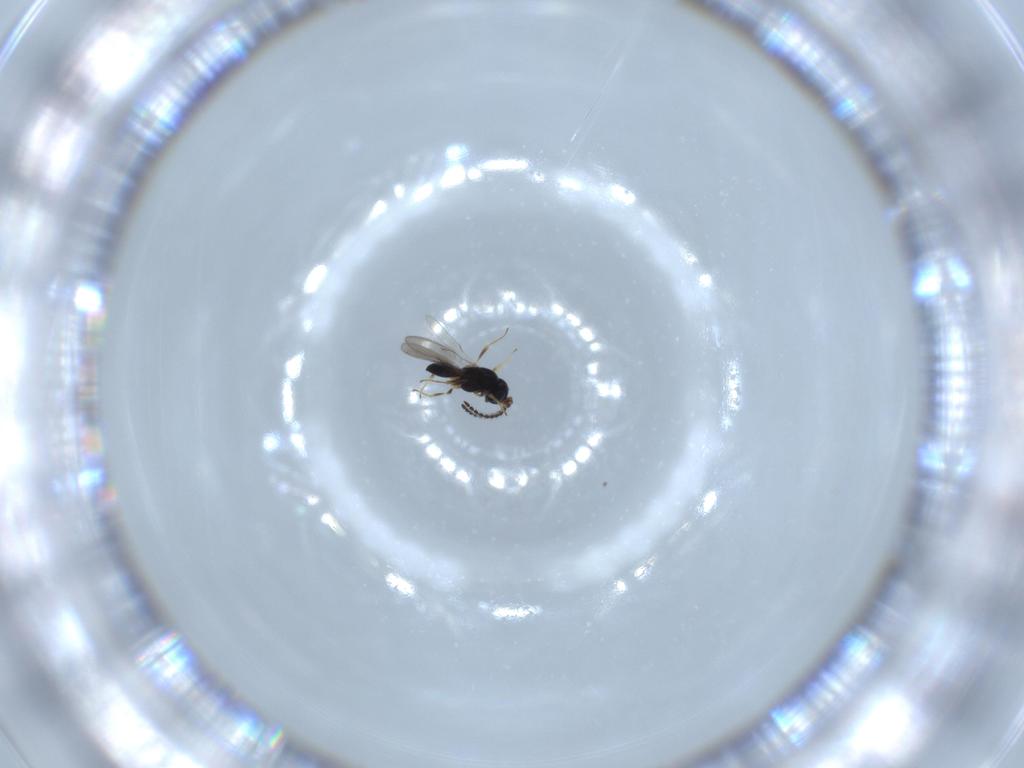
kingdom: Animalia
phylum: Arthropoda
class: Insecta
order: Hymenoptera
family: Scelionidae
